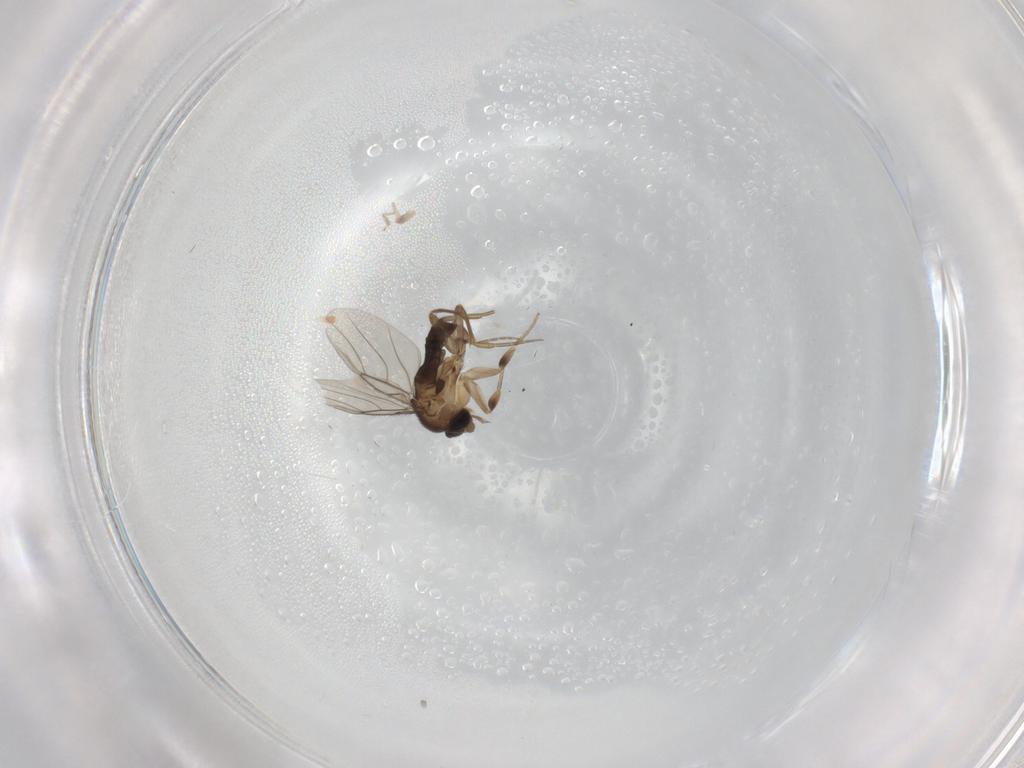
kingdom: Animalia
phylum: Arthropoda
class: Insecta
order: Diptera
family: Phoridae
